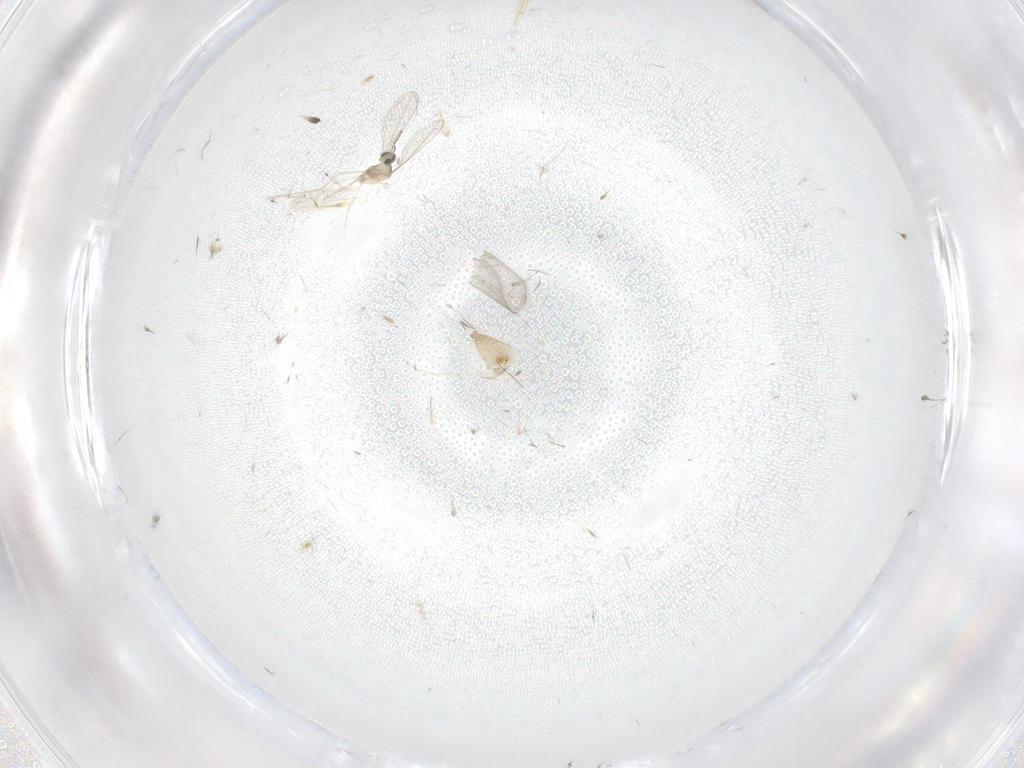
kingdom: Animalia
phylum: Arthropoda
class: Insecta
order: Diptera
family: Cecidomyiidae
